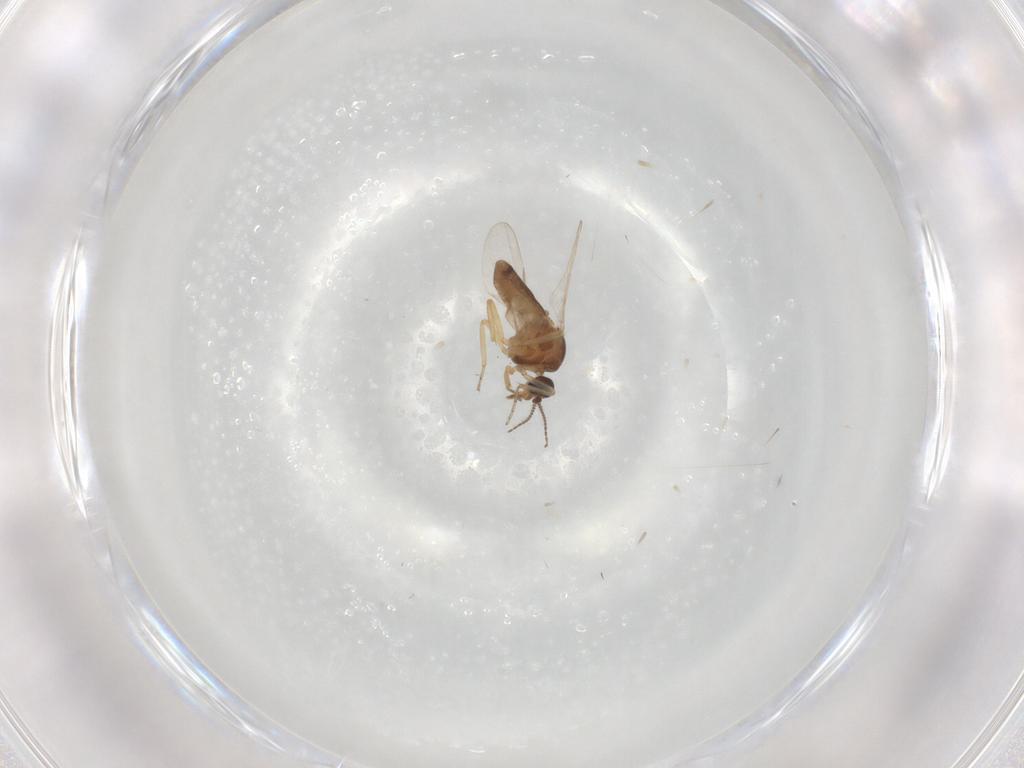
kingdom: Animalia
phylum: Arthropoda
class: Insecta
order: Diptera
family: Ceratopogonidae
